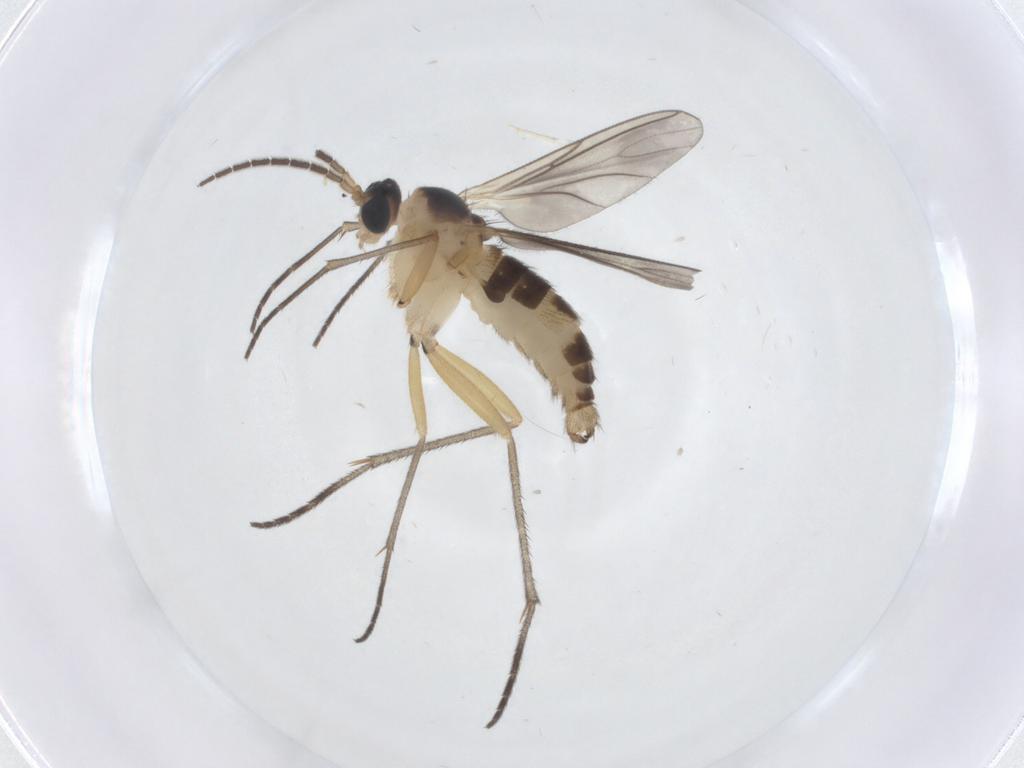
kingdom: Animalia
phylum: Arthropoda
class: Insecta
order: Diptera
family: Sciaridae
